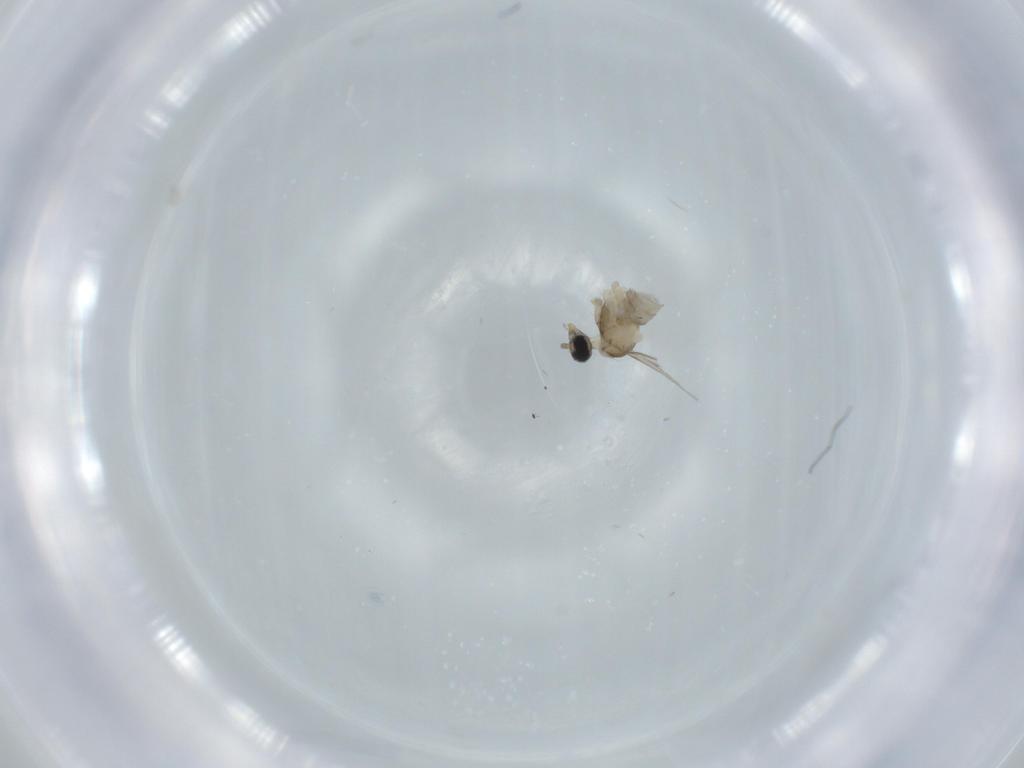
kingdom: Animalia
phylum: Arthropoda
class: Insecta
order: Diptera
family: Cecidomyiidae
